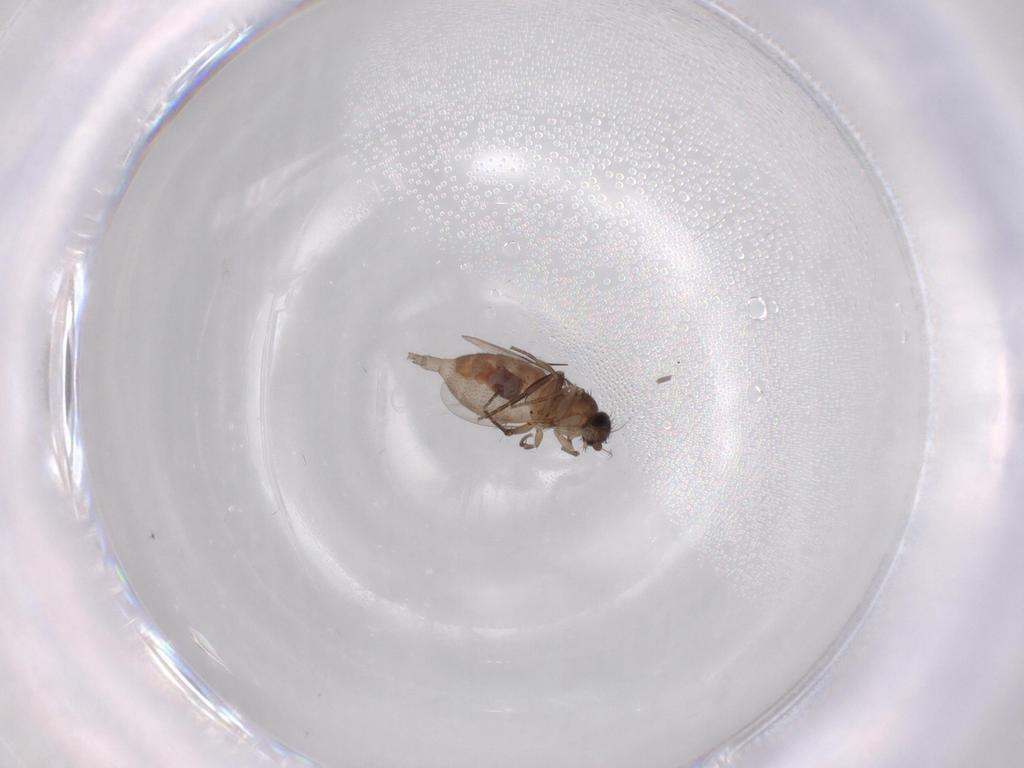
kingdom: Animalia
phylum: Arthropoda
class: Insecta
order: Diptera
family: Phoridae
